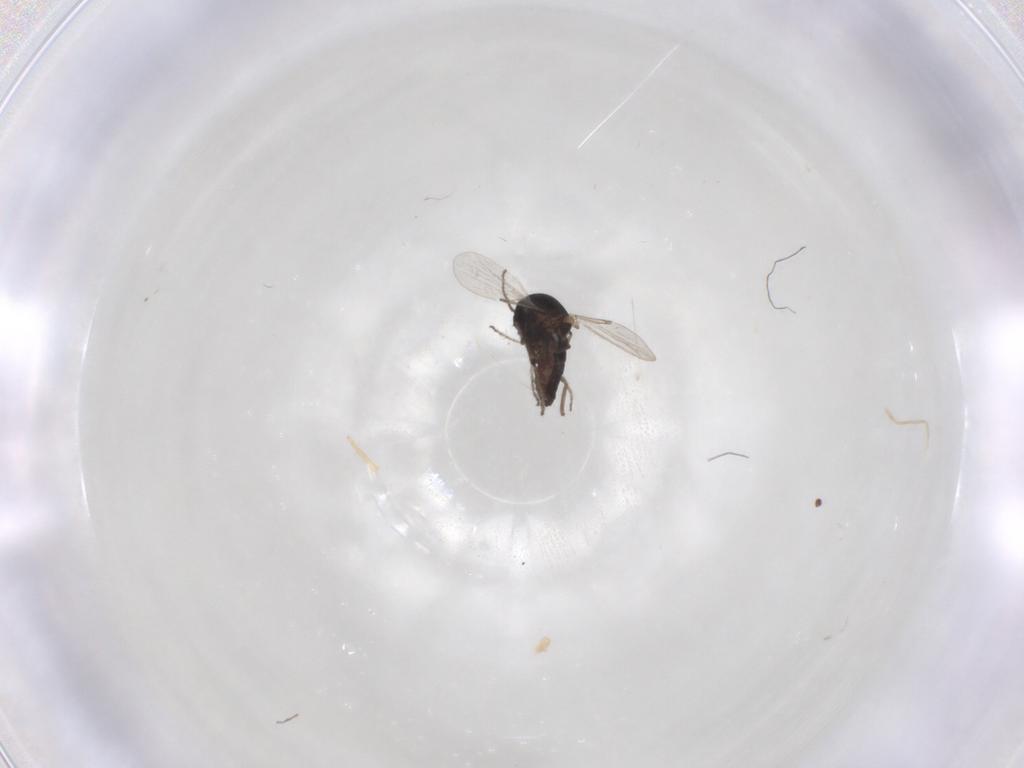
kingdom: Animalia
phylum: Arthropoda
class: Insecta
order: Diptera
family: Ceratopogonidae
